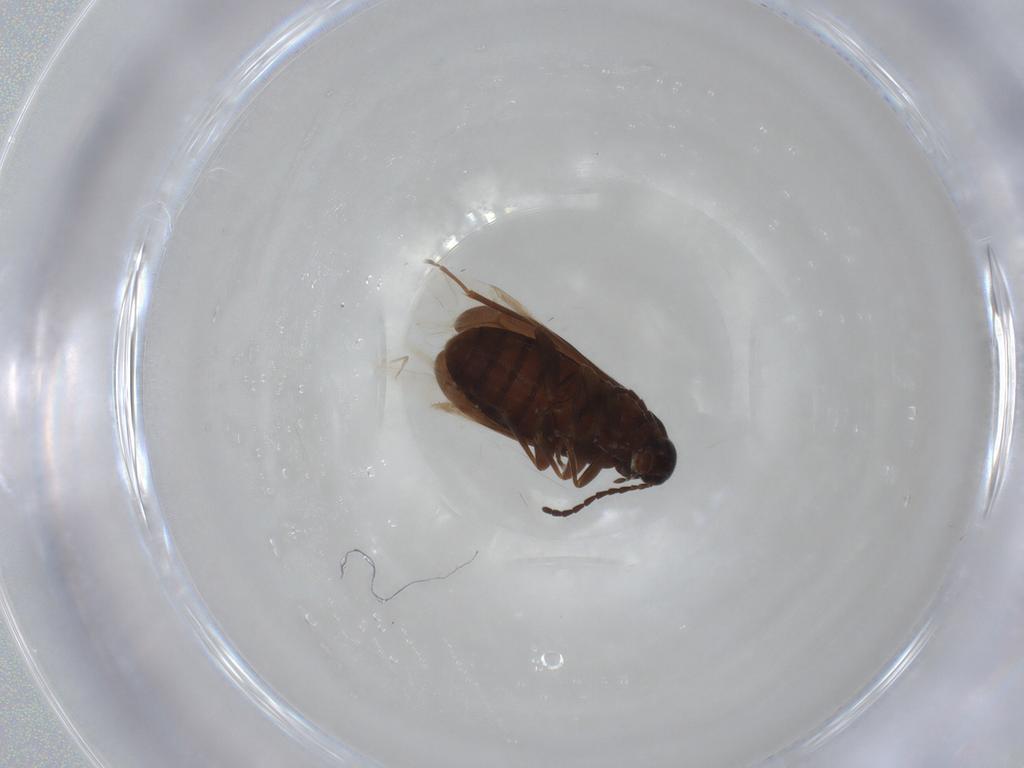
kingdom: Animalia
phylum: Arthropoda
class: Insecta
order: Coleoptera
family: Scraptiidae
